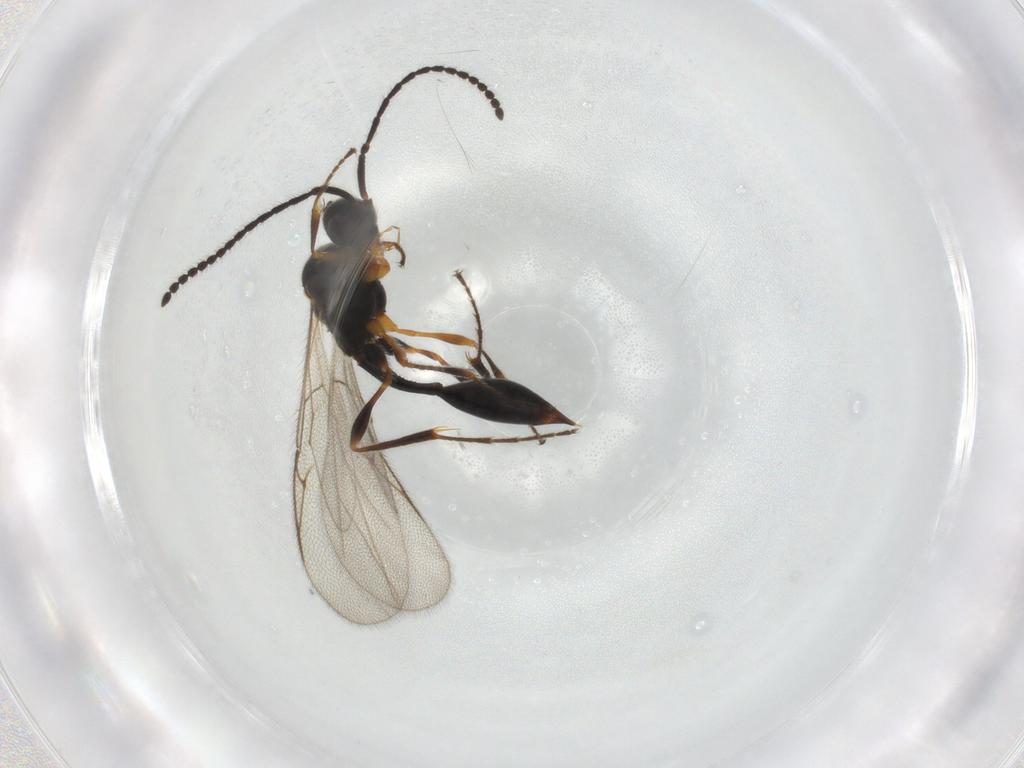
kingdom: Animalia
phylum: Arthropoda
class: Insecta
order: Hymenoptera
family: Diapriidae
